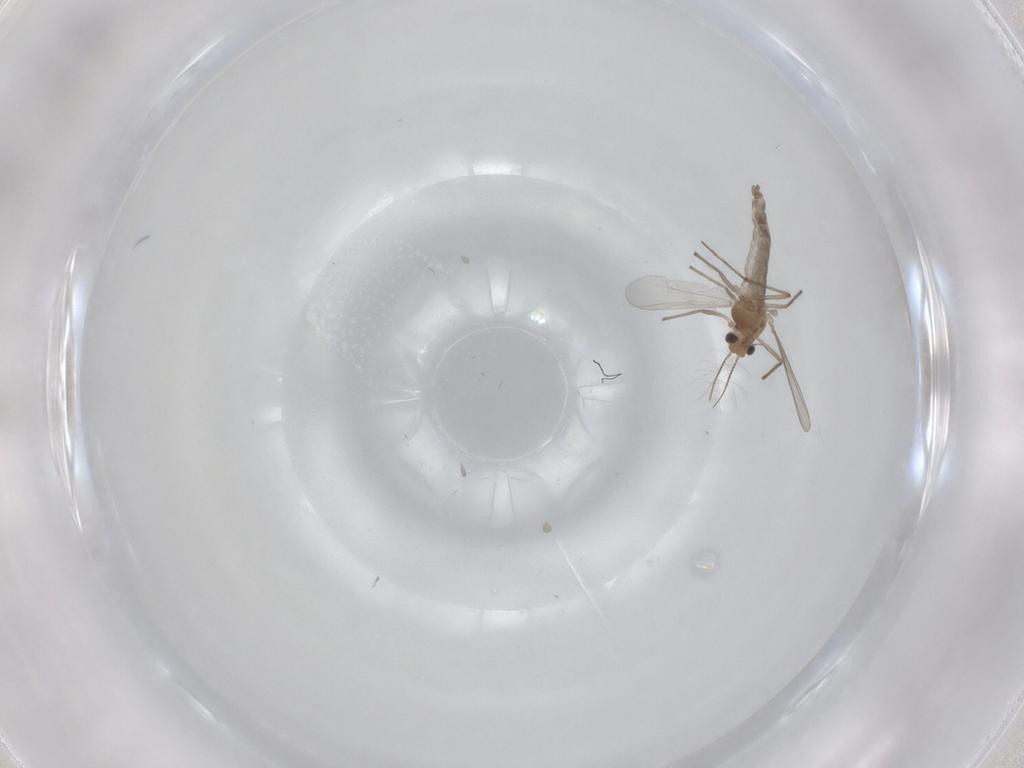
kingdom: Animalia
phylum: Arthropoda
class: Insecta
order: Diptera
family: Chironomidae
